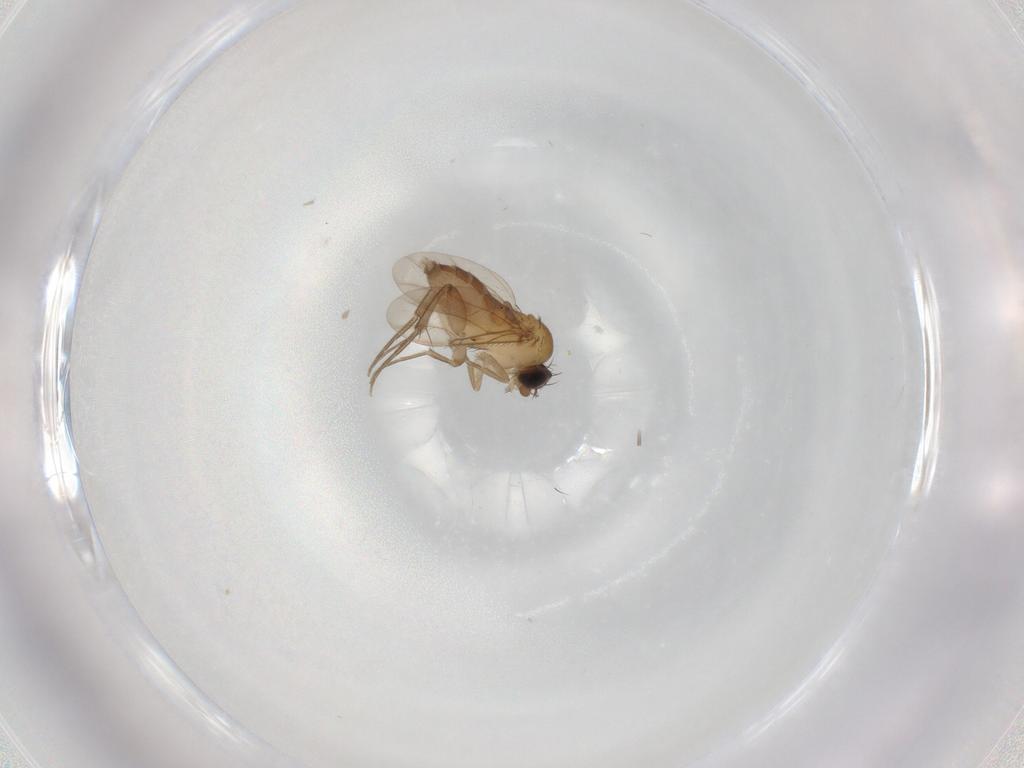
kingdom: Animalia
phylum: Arthropoda
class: Insecta
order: Diptera
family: Phoridae
